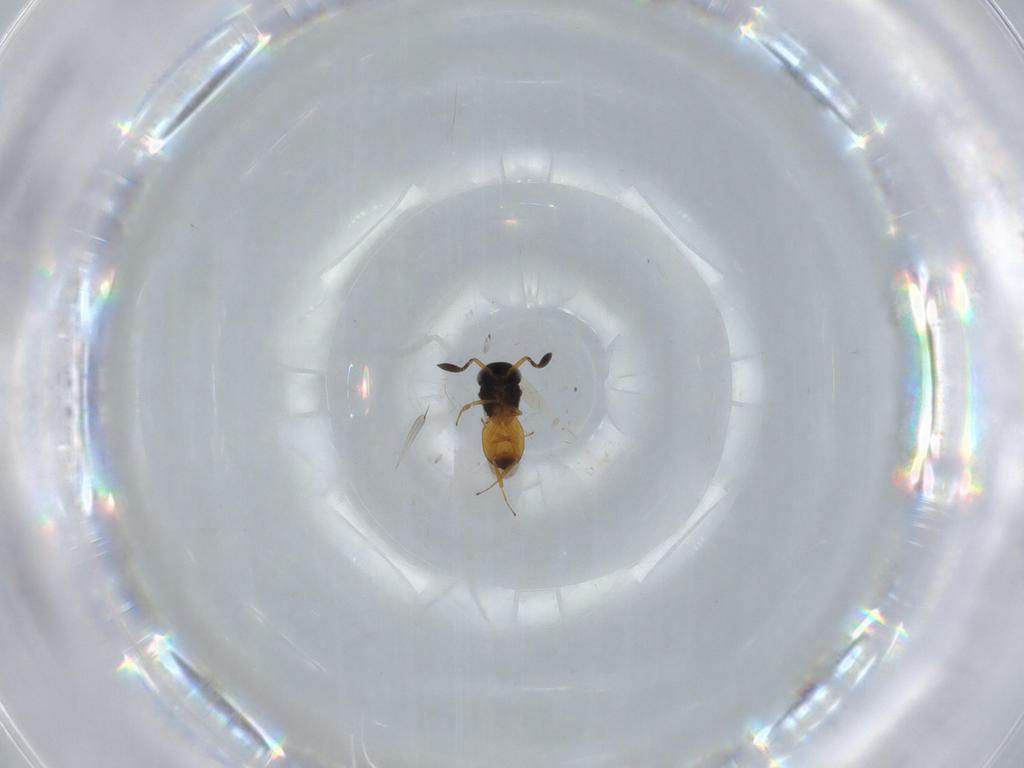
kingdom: Animalia
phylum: Arthropoda
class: Insecta
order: Hymenoptera
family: Scelionidae
